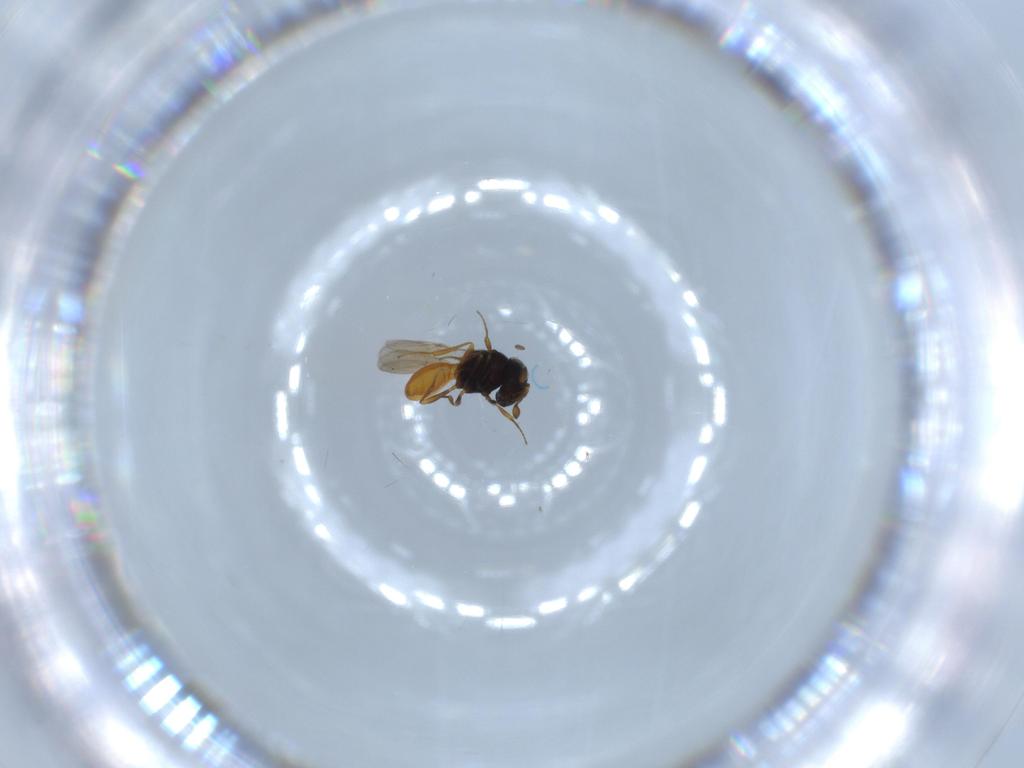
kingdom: Animalia
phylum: Arthropoda
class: Insecta
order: Hymenoptera
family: Scelionidae
